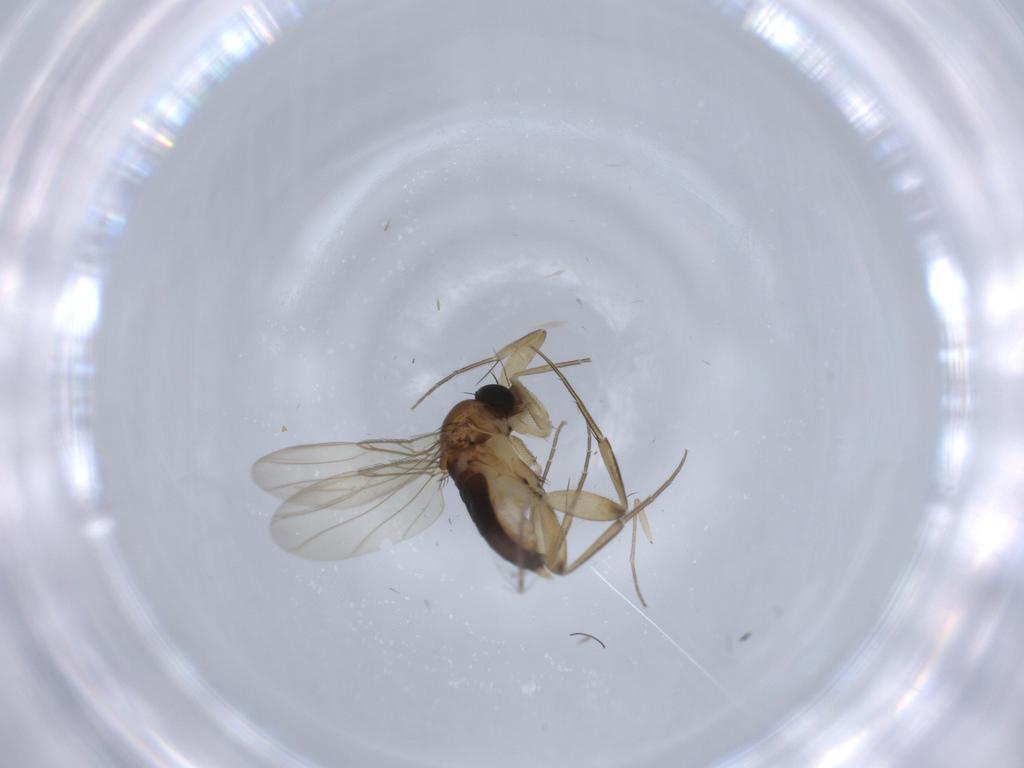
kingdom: Animalia
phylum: Arthropoda
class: Insecta
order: Diptera
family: Phoridae
